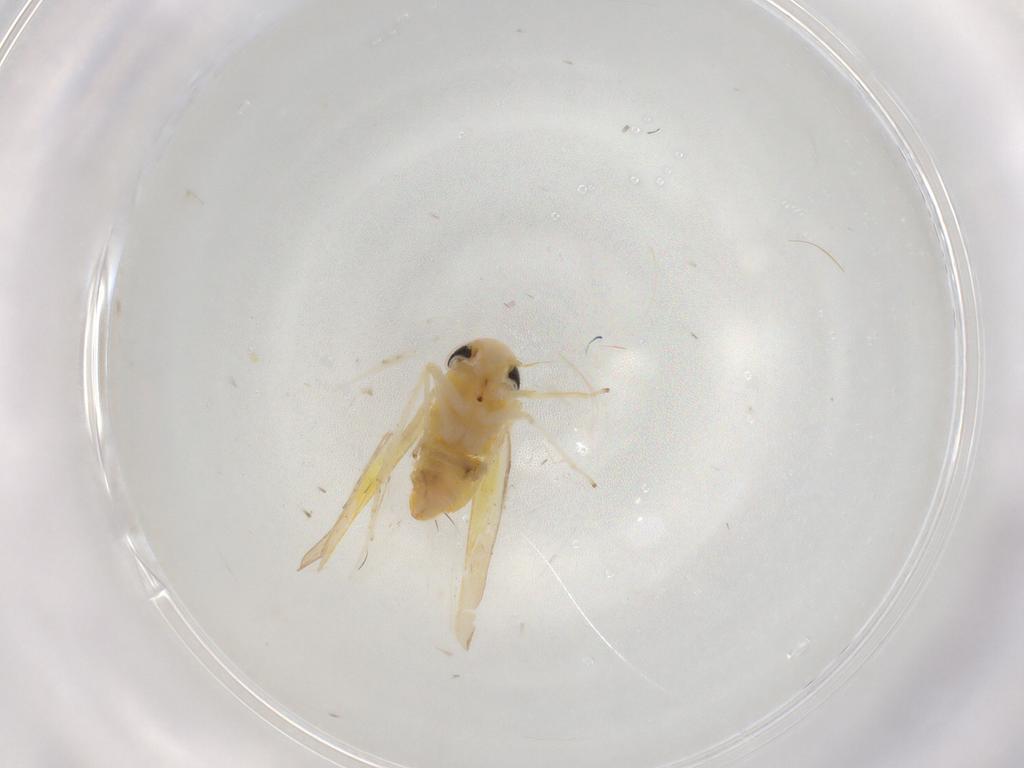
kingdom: Animalia
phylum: Arthropoda
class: Insecta
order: Hemiptera
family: Cicadellidae
